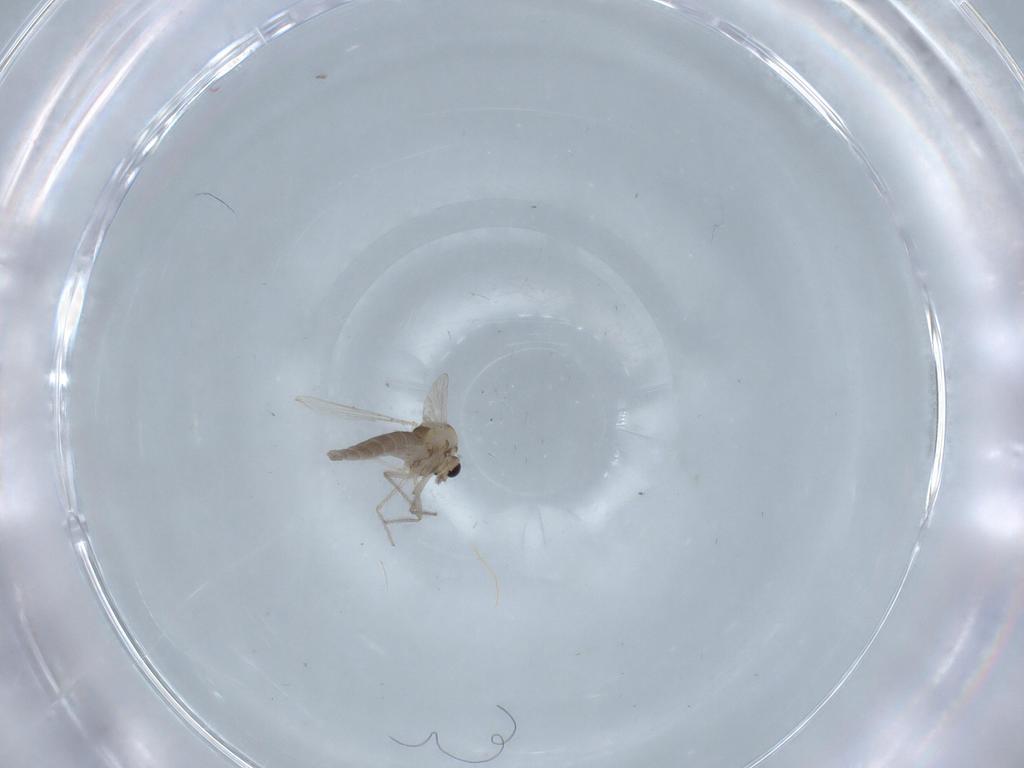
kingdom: Animalia
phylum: Arthropoda
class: Insecta
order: Diptera
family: Chironomidae
